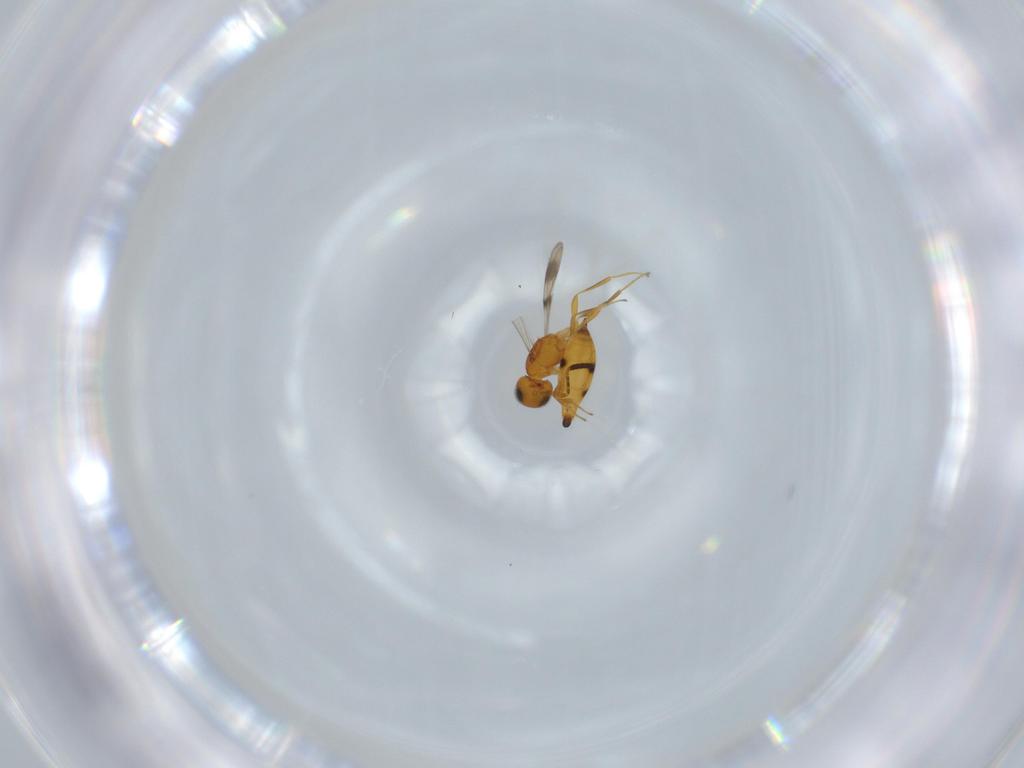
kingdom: Animalia
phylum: Arthropoda
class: Insecta
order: Hymenoptera
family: Scelionidae
